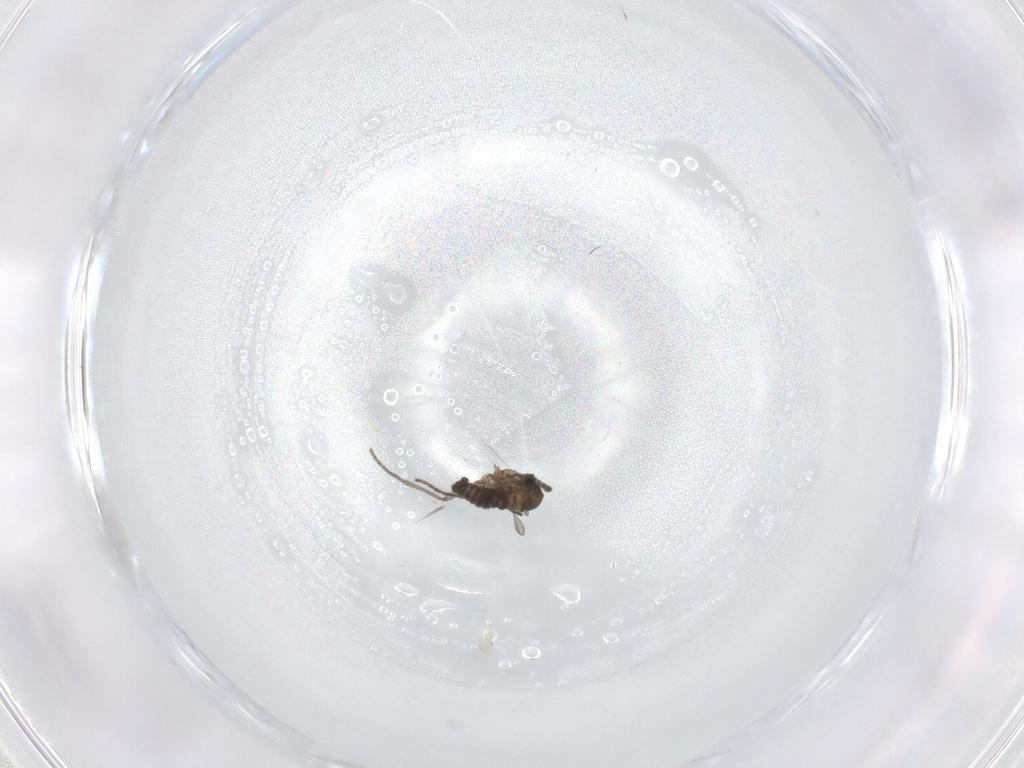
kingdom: Animalia
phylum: Arthropoda
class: Insecta
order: Diptera
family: Sciaridae
